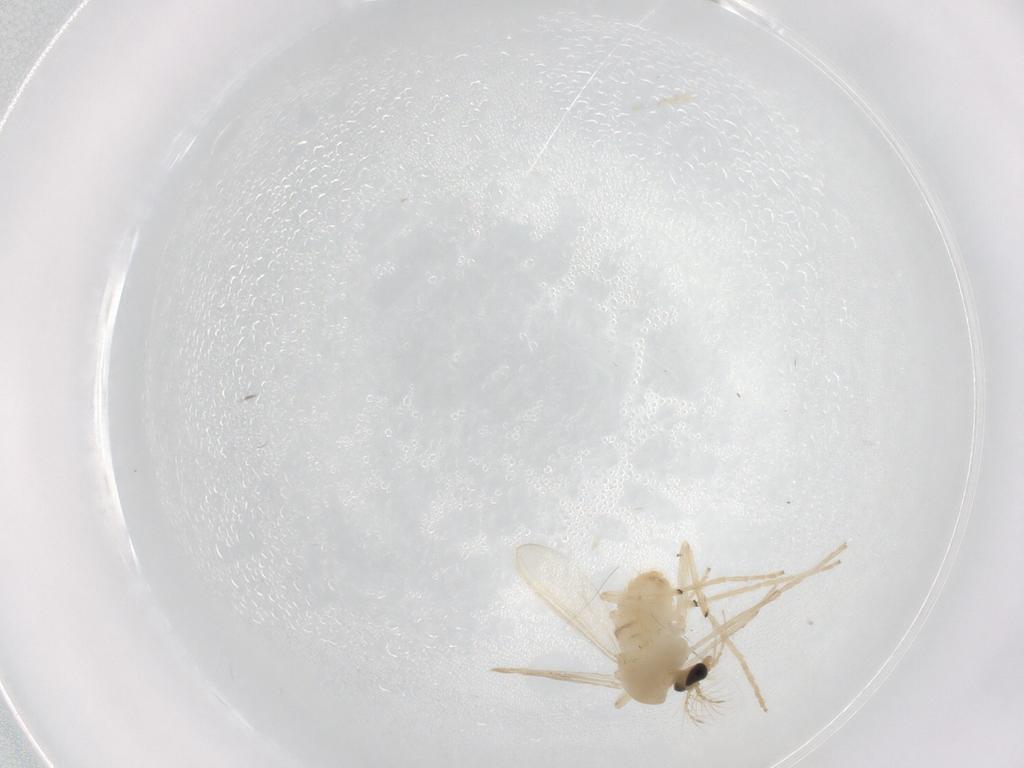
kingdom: Animalia
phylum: Arthropoda
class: Insecta
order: Diptera
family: Chironomidae
